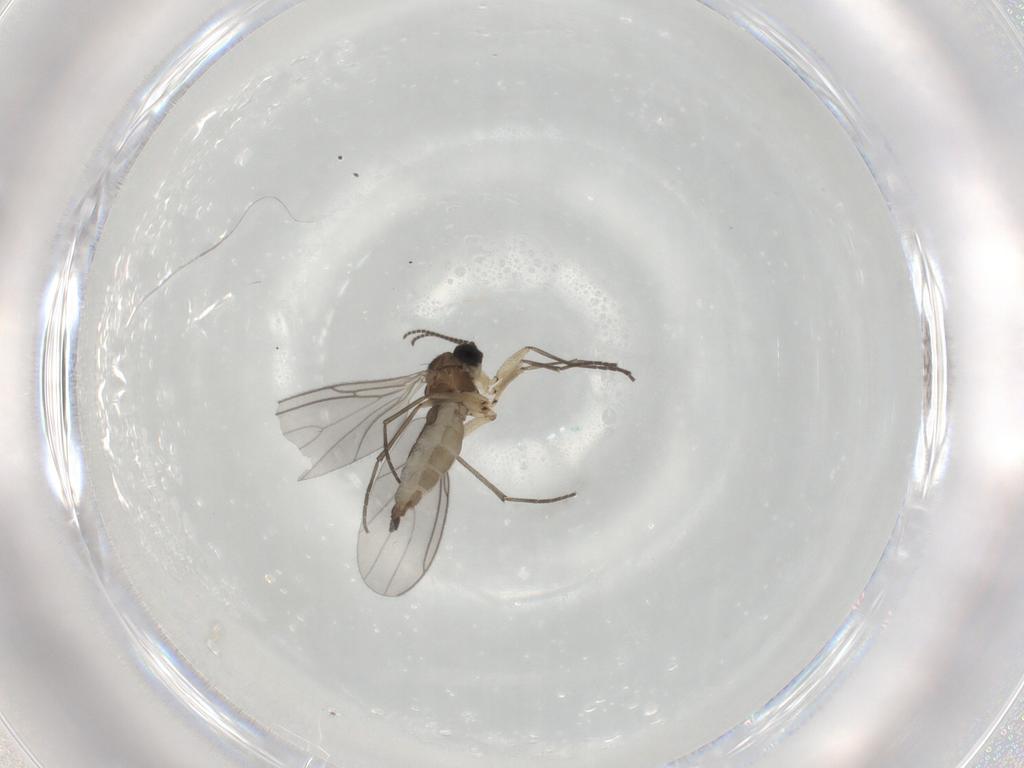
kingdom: Animalia
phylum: Arthropoda
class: Insecta
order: Diptera
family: Sciaridae
